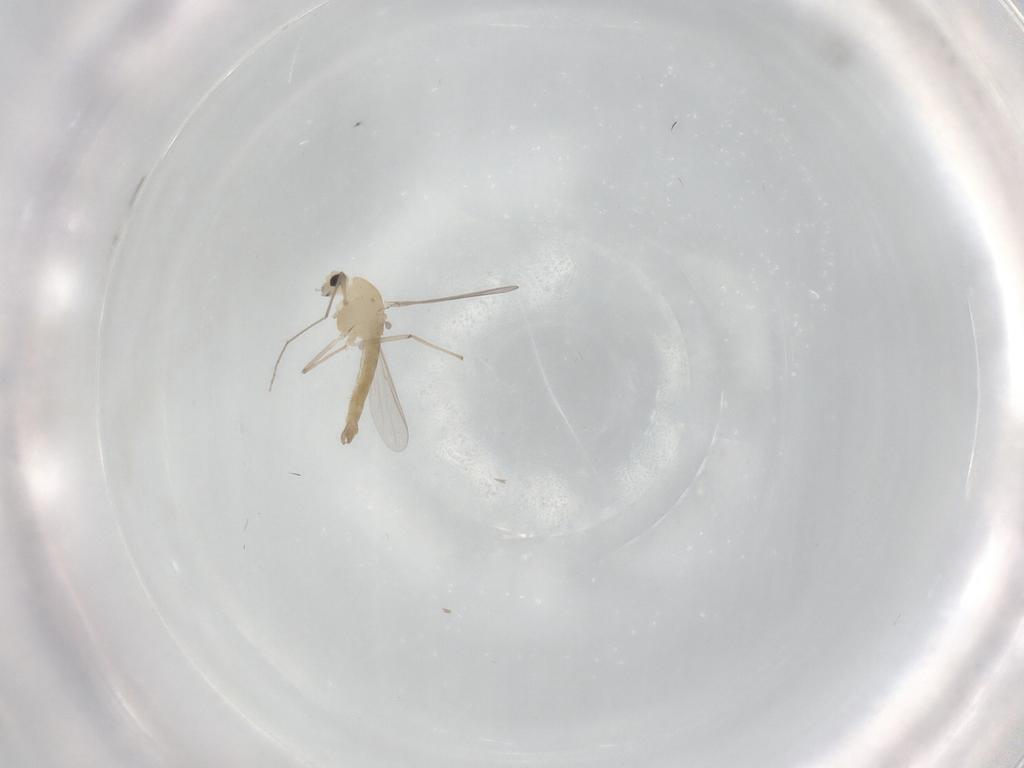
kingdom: Animalia
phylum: Arthropoda
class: Insecta
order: Diptera
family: Chironomidae
